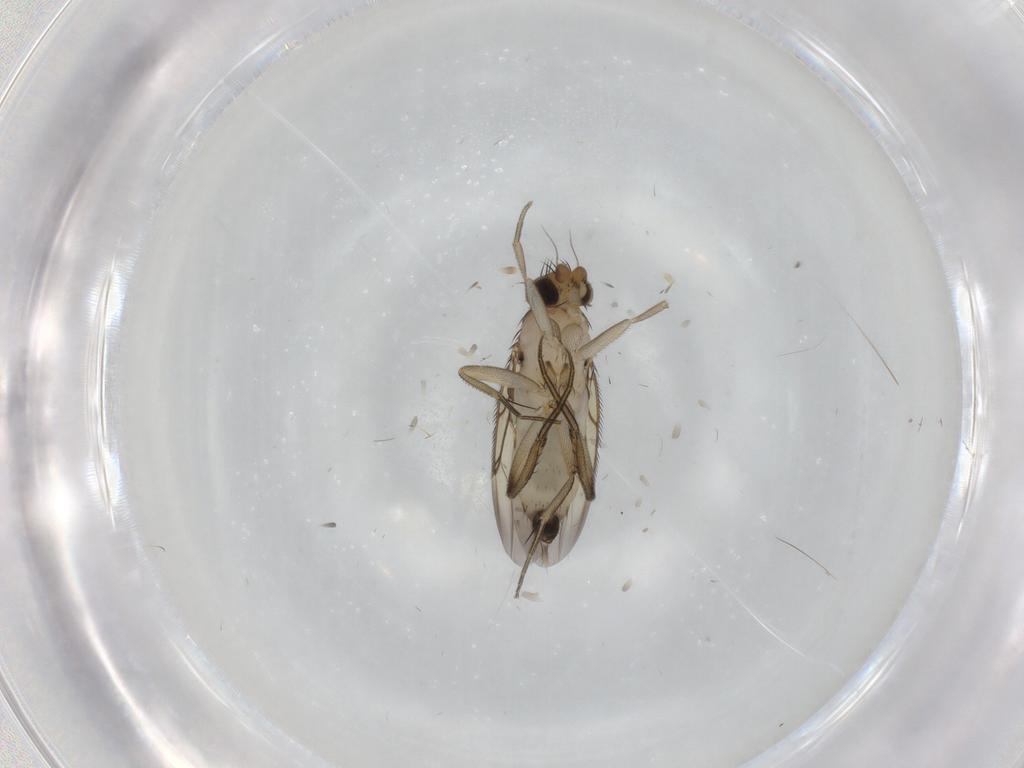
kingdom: Animalia
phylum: Arthropoda
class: Insecta
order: Diptera
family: Phoridae
